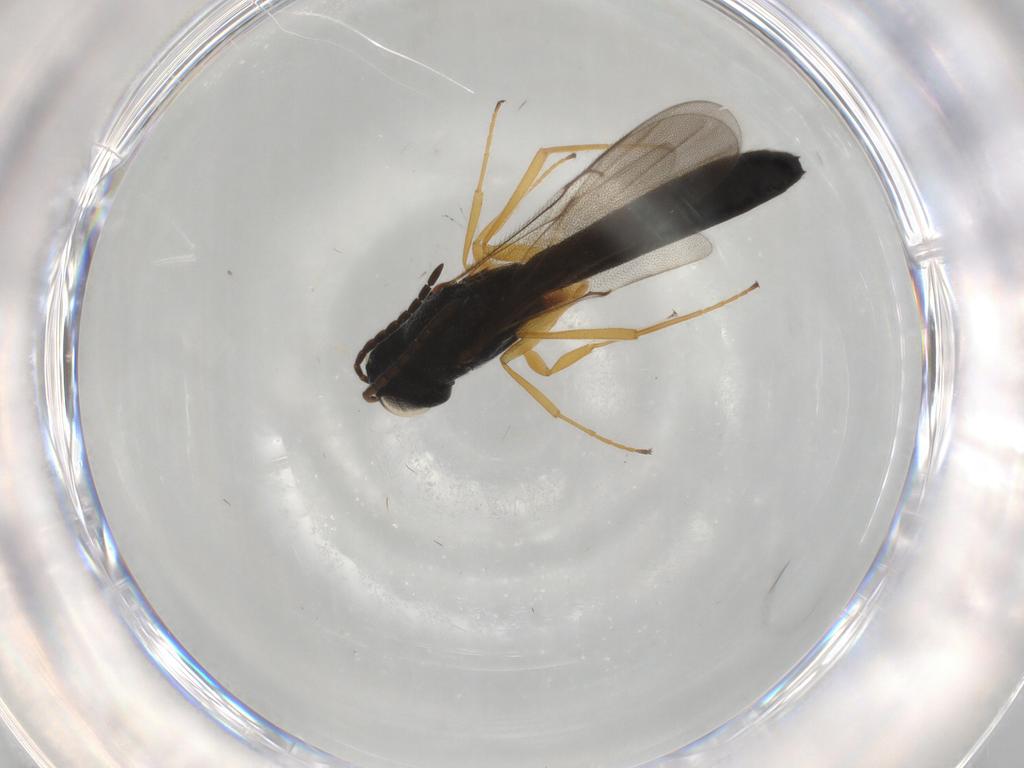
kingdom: Animalia
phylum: Arthropoda
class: Insecta
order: Hymenoptera
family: Scelionidae
